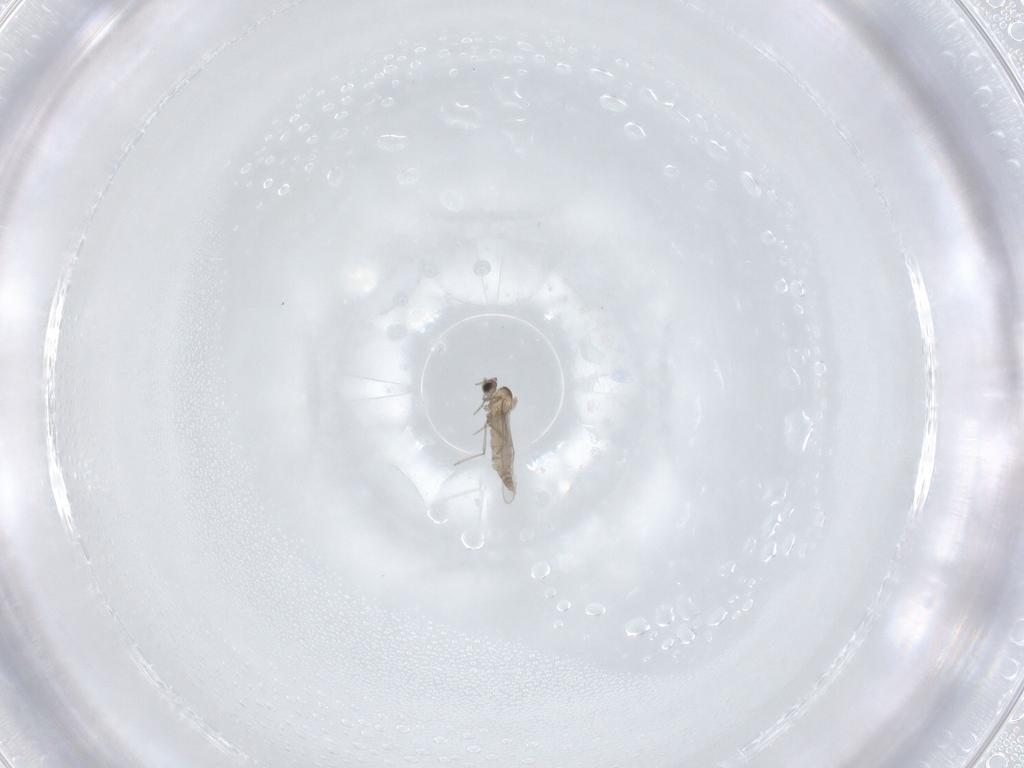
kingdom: Animalia
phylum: Arthropoda
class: Insecta
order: Diptera
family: Cecidomyiidae
